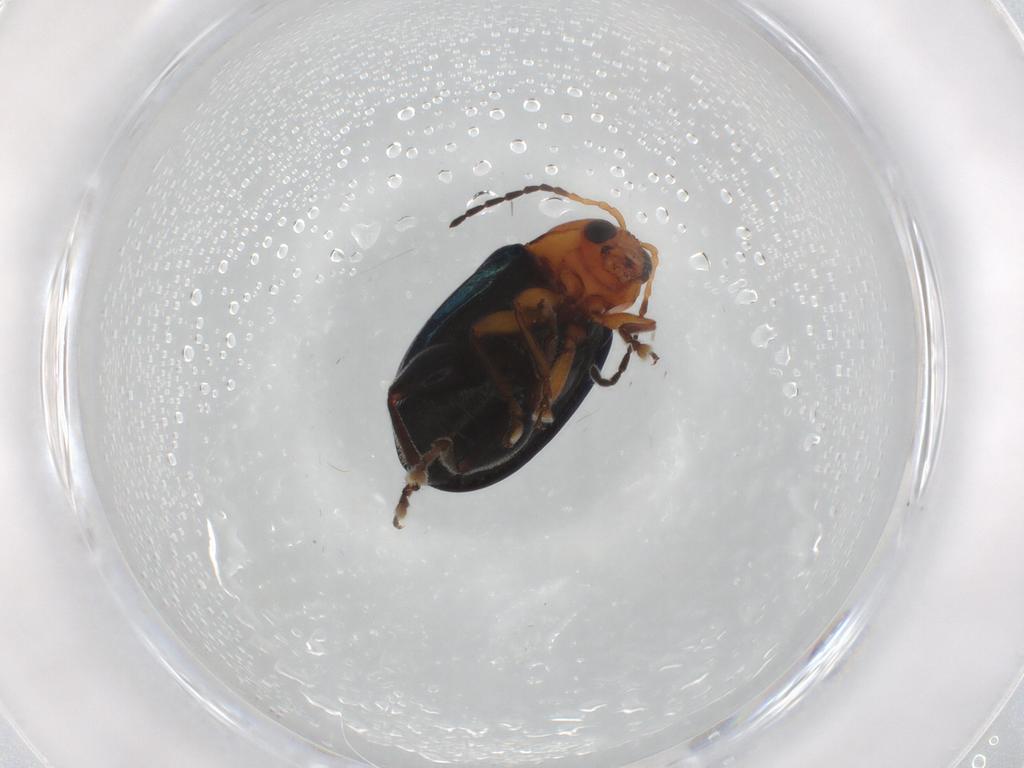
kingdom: Animalia
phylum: Arthropoda
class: Insecta
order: Coleoptera
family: Chrysomelidae
